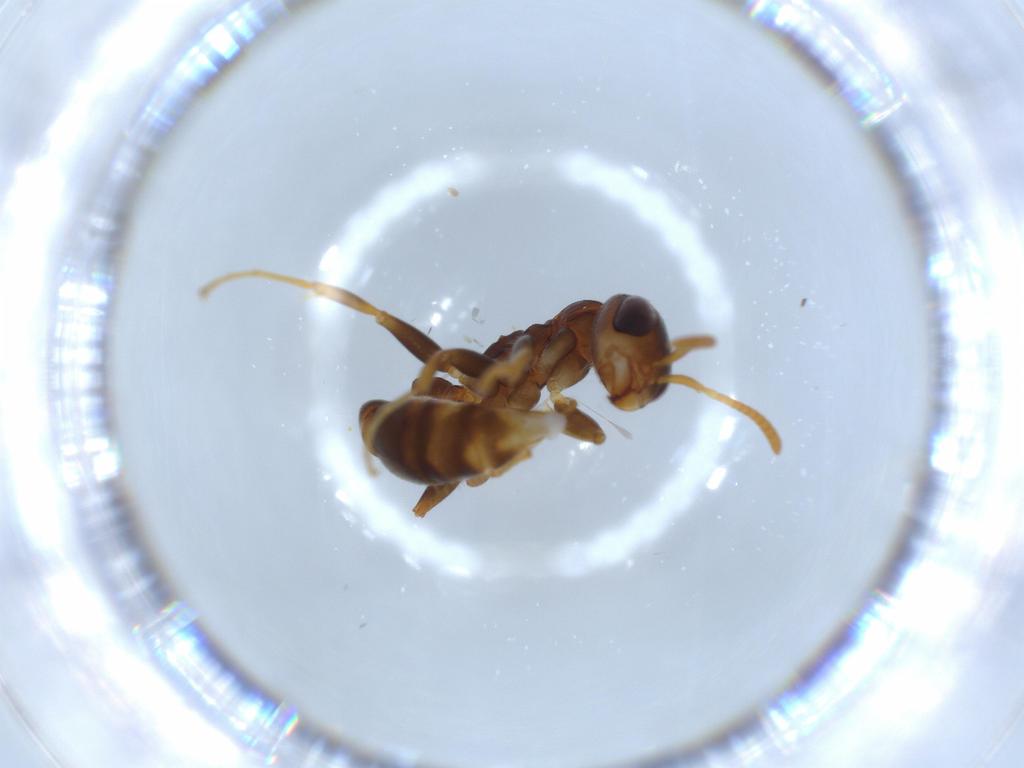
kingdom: Animalia
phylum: Arthropoda
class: Insecta
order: Hymenoptera
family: Formicidae
